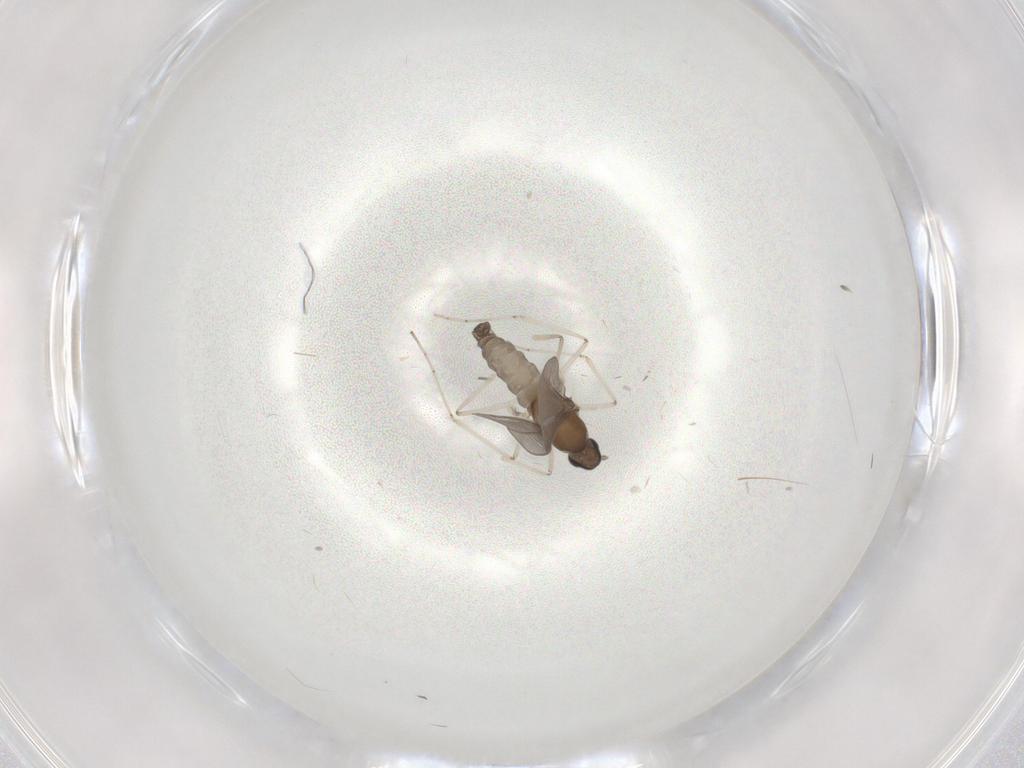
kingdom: Animalia
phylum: Arthropoda
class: Insecta
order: Diptera
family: Cecidomyiidae
